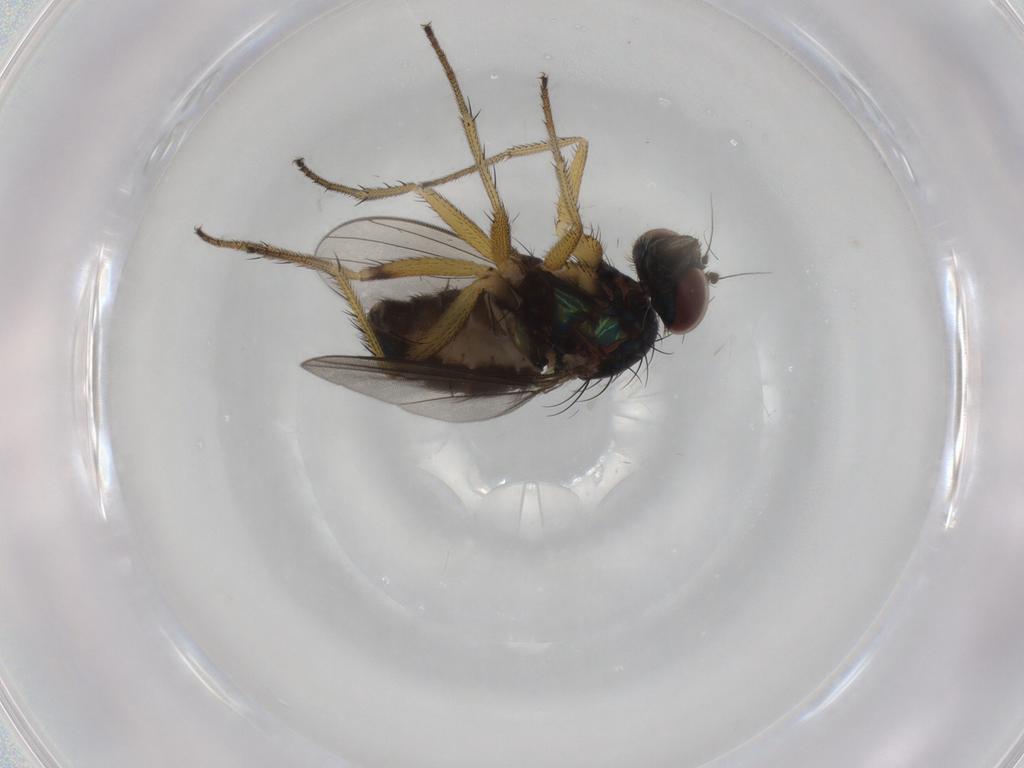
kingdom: Animalia
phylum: Arthropoda
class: Insecta
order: Diptera
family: Dolichopodidae
